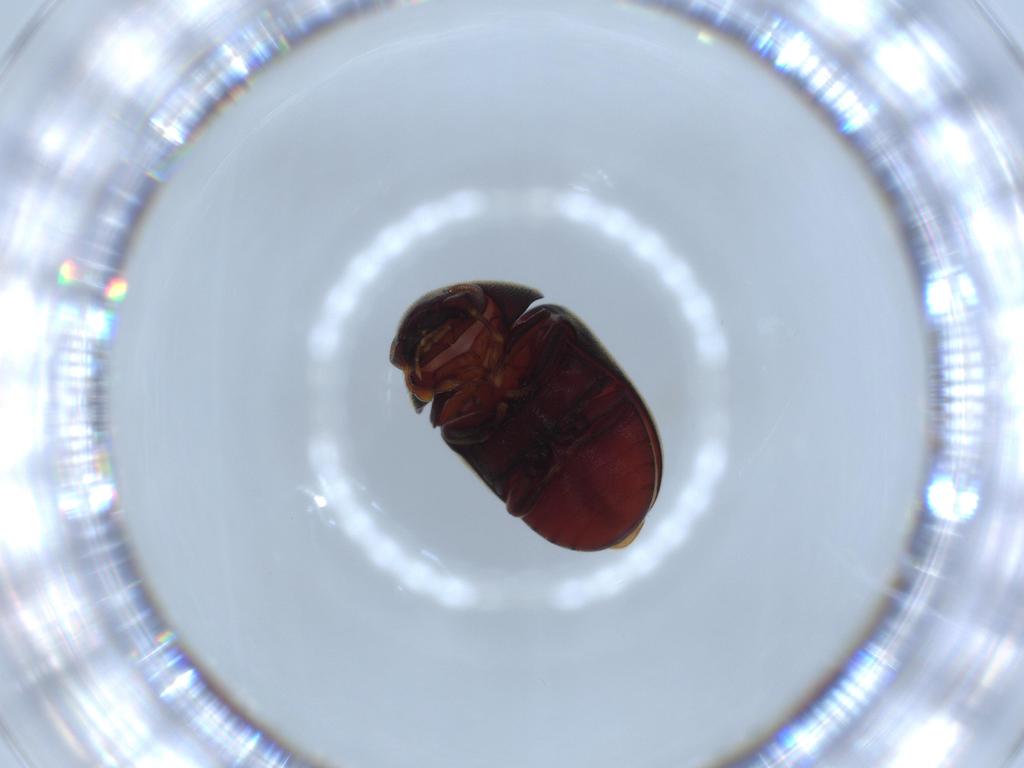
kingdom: Animalia
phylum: Arthropoda
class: Insecta
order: Coleoptera
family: Ptinidae
